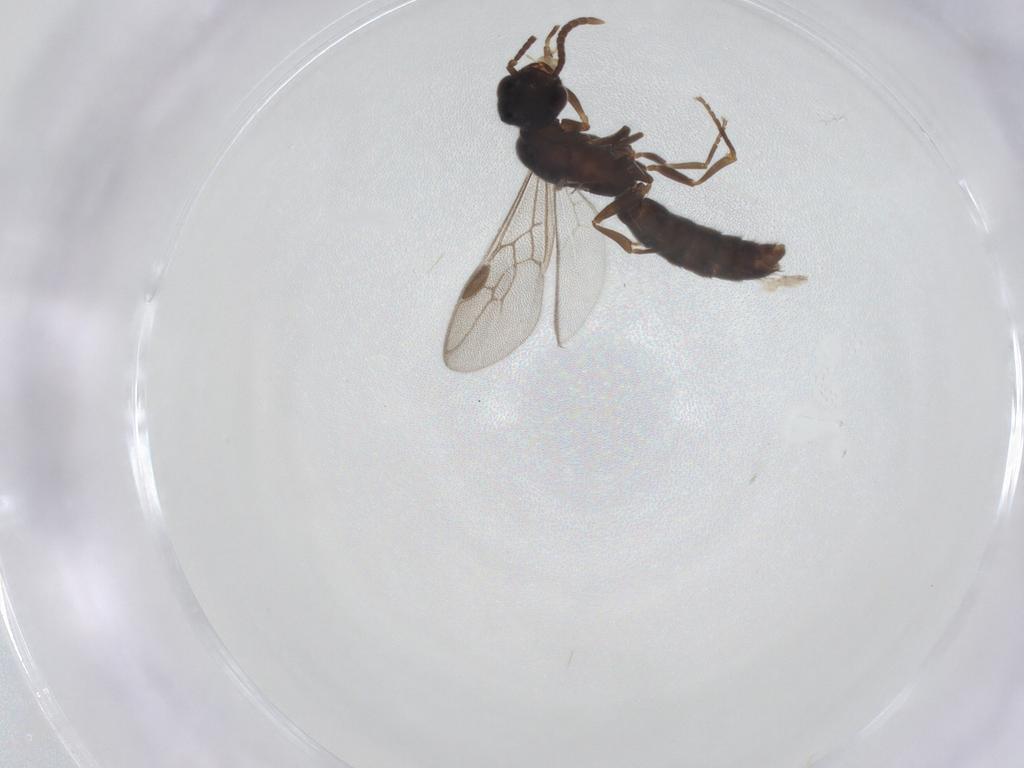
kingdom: Animalia
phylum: Arthropoda
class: Insecta
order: Hymenoptera
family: Formicidae
